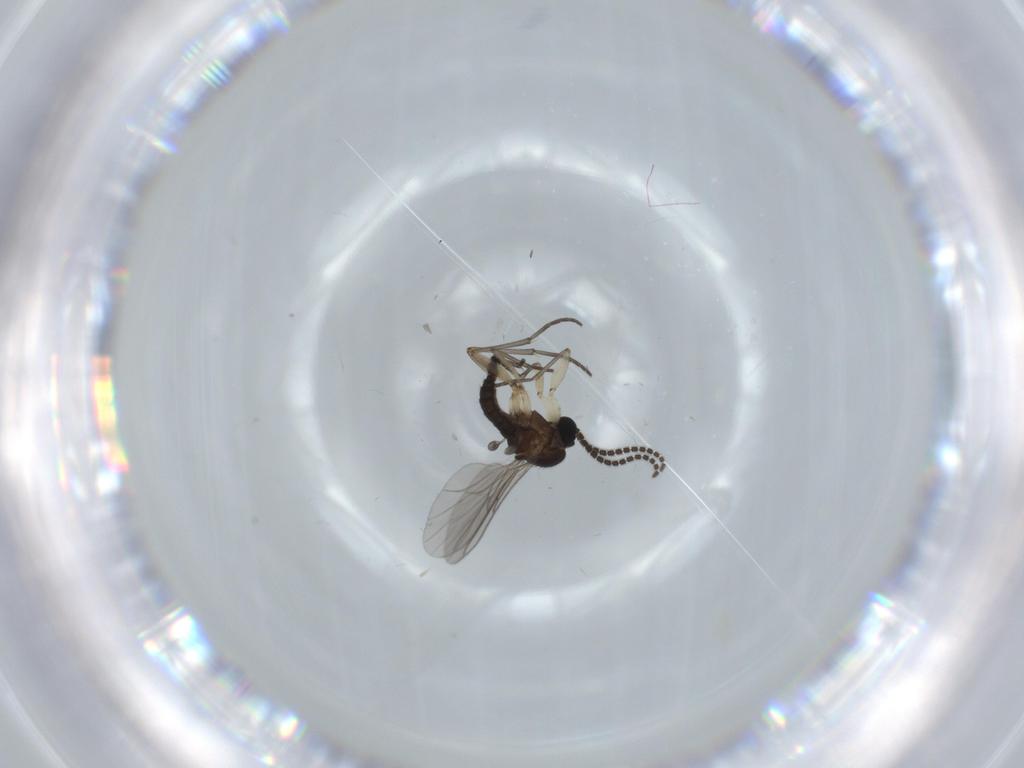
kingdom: Animalia
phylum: Arthropoda
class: Insecta
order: Diptera
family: Sciaridae
